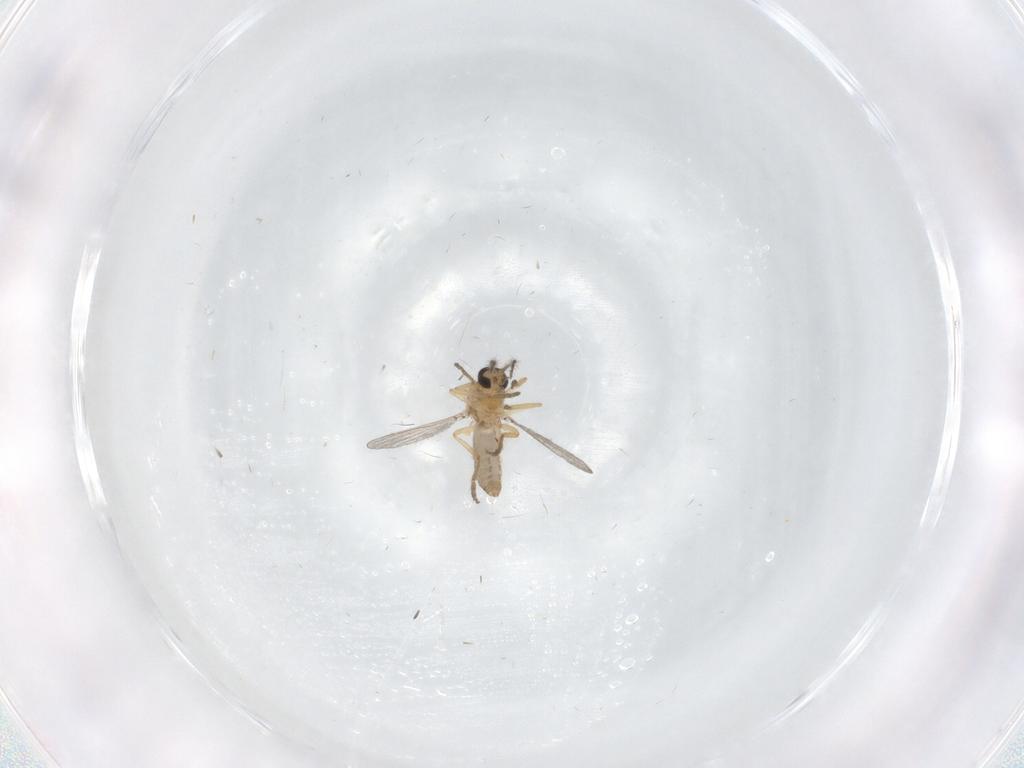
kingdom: Animalia
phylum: Arthropoda
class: Insecta
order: Diptera
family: Ceratopogonidae
